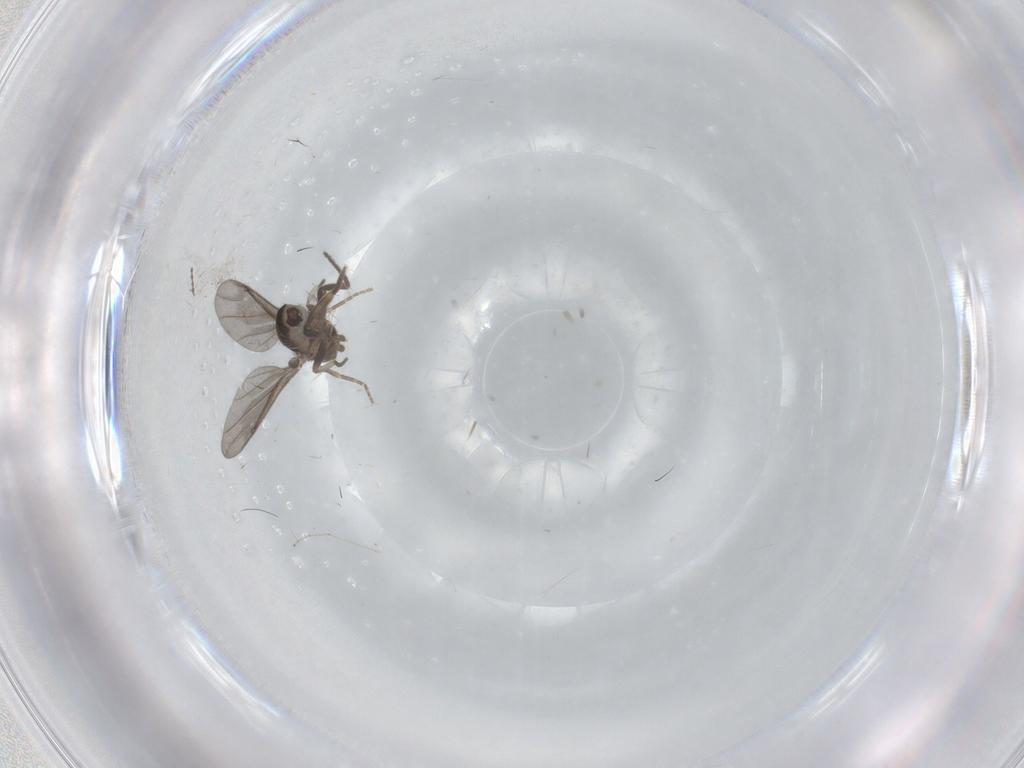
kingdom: Animalia
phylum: Arthropoda
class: Insecta
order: Diptera
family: Phoridae
